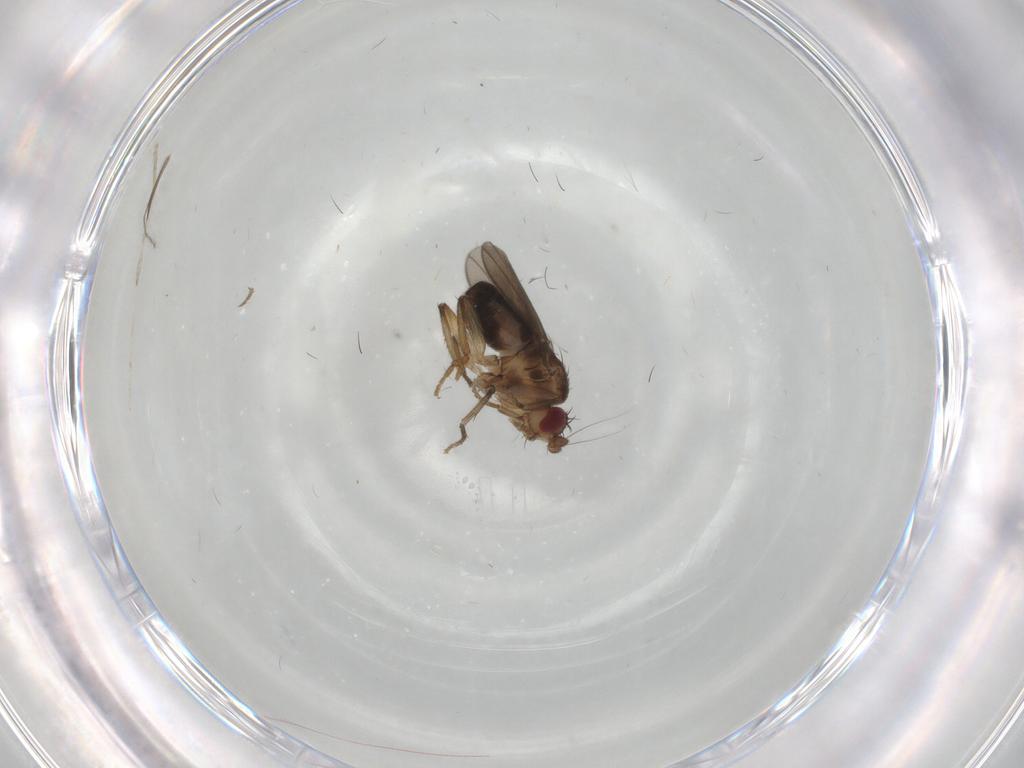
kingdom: Animalia
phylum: Arthropoda
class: Insecta
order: Diptera
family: Sphaeroceridae
